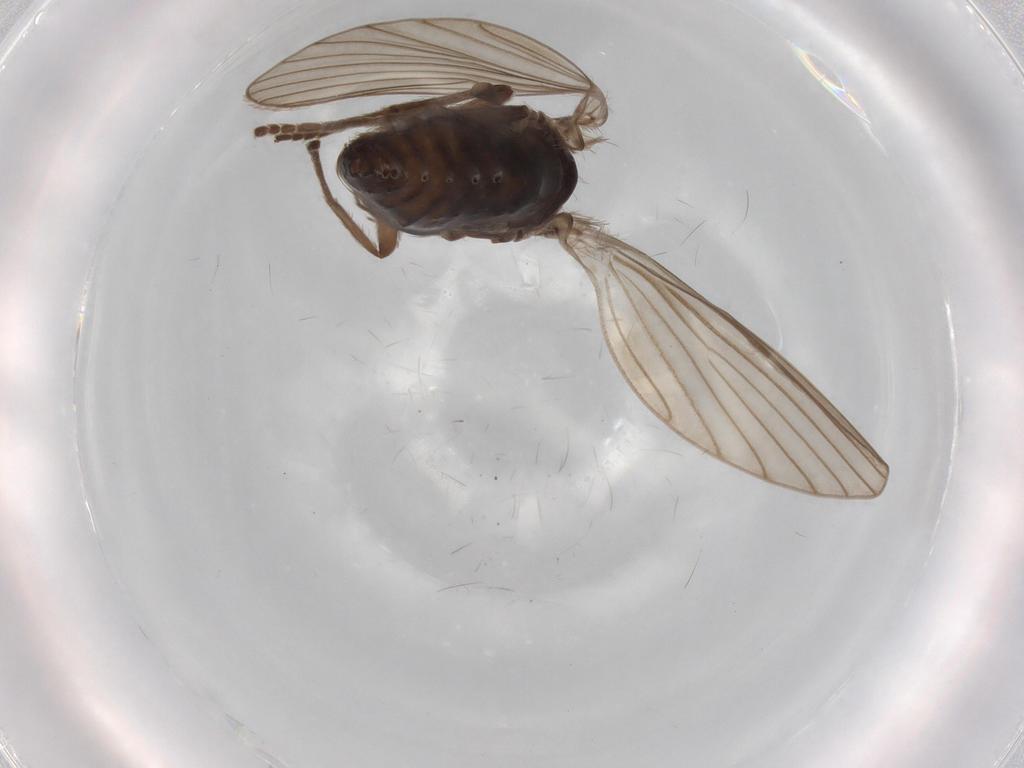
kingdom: Animalia
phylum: Arthropoda
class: Insecta
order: Diptera
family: Psychodidae
